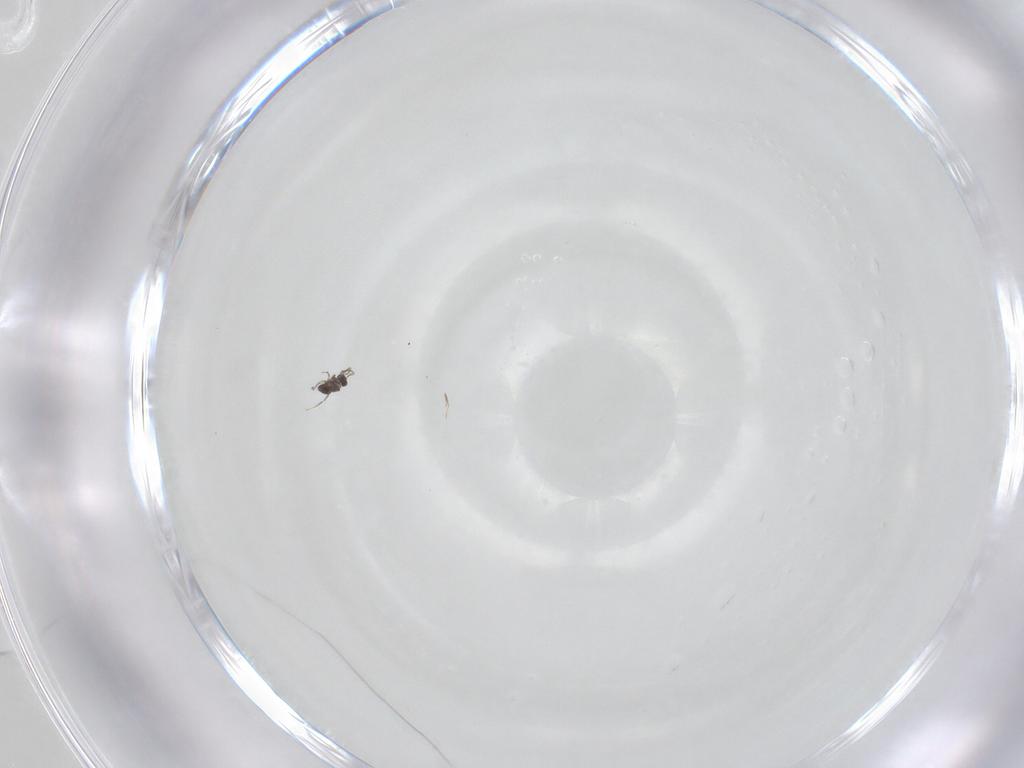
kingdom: Animalia
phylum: Arthropoda
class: Insecta
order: Hymenoptera
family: Mymaridae
